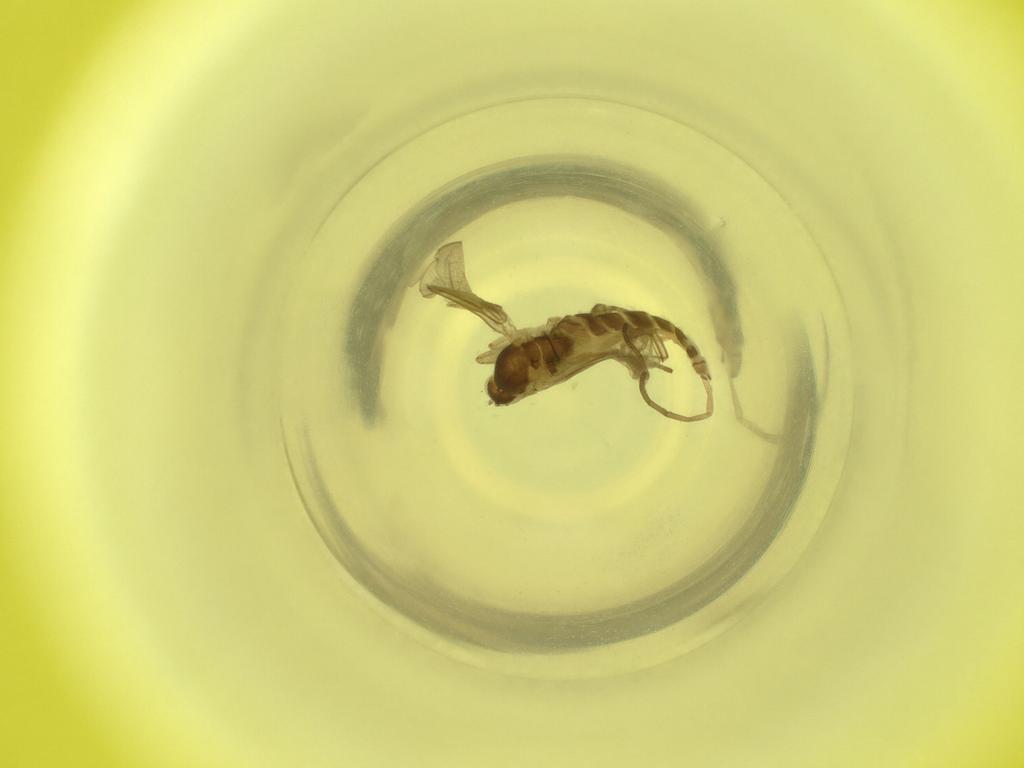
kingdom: Animalia
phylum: Arthropoda
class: Insecta
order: Diptera
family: Cecidomyiidae
